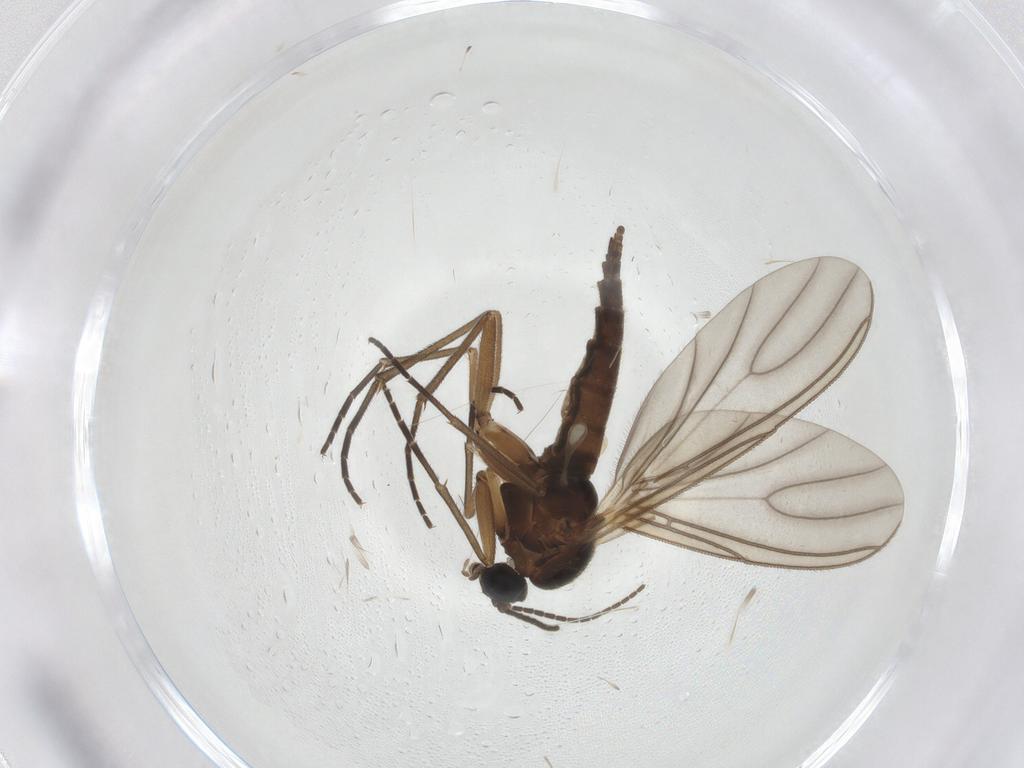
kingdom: Animalia
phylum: Arthropoda
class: Insecta
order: Diptera
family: Sciaridae
